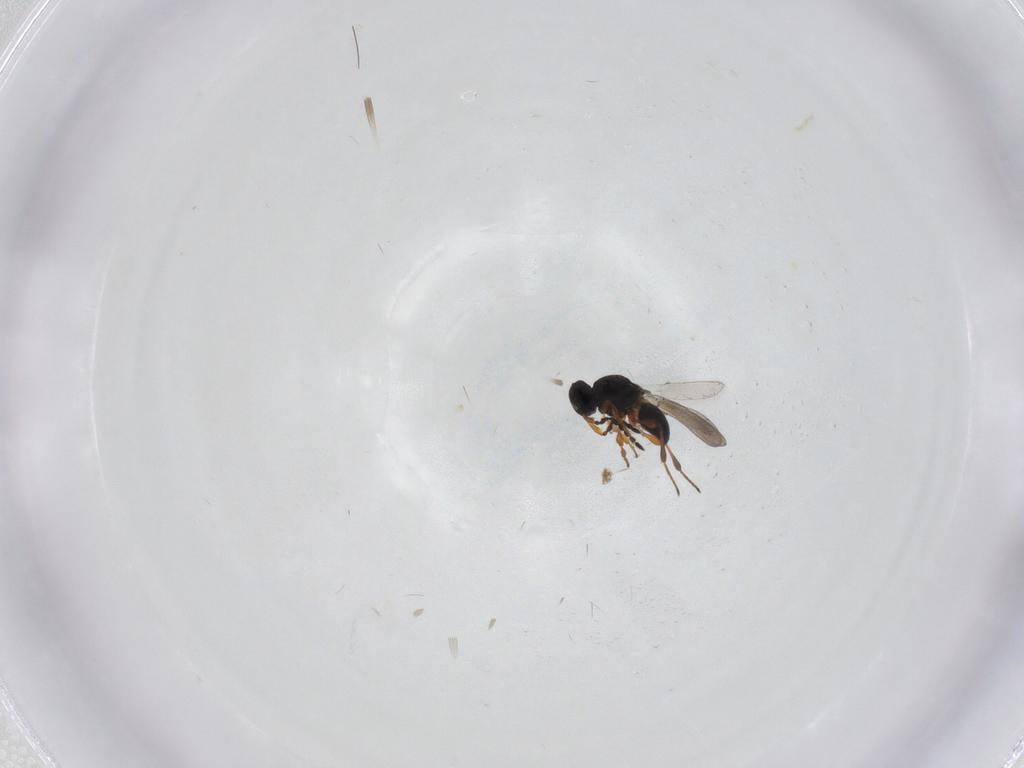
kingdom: Animalia
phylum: Arthropoda
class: Insecta
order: Hymenoptera
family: Platygastridae
